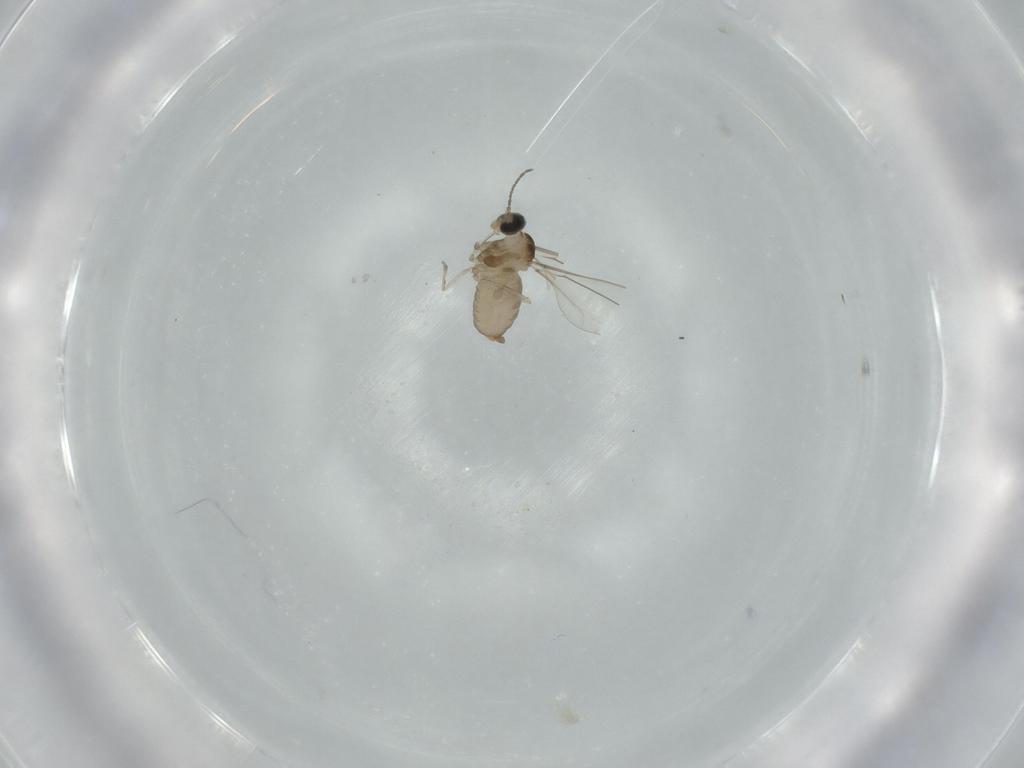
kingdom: Animalia
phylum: Arthropoda
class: Insecta
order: Diptera
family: Cecidomyiidae
